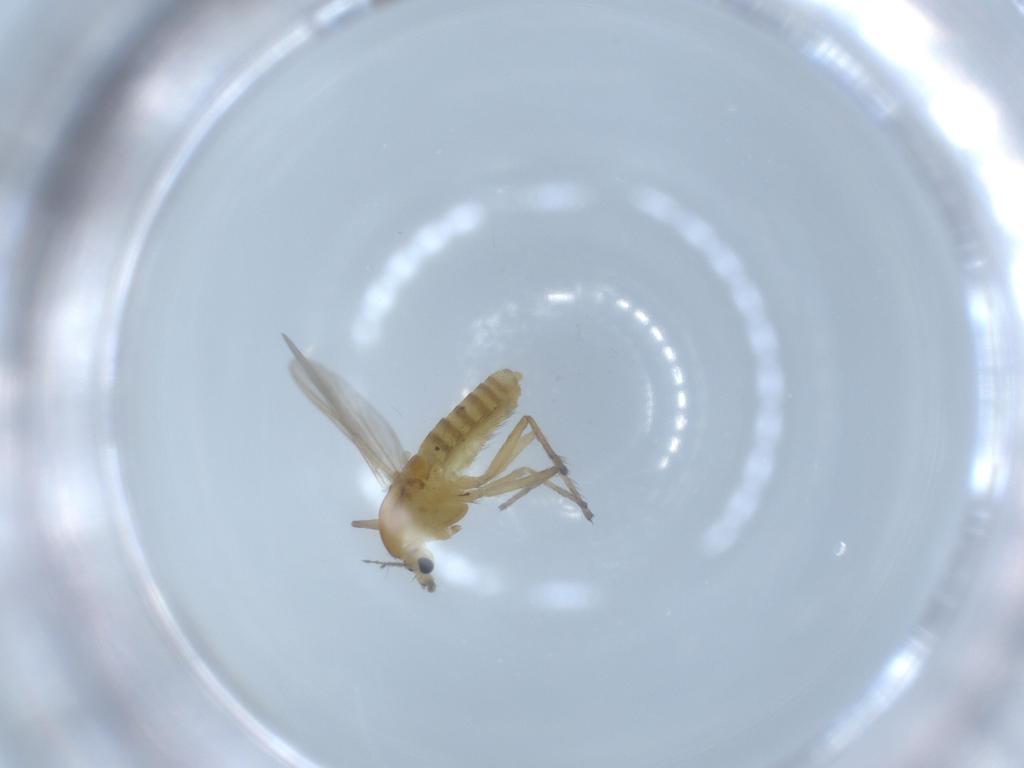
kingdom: Animalia
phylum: Arthropoda
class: Insecta
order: Diptera
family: Chironomidae
